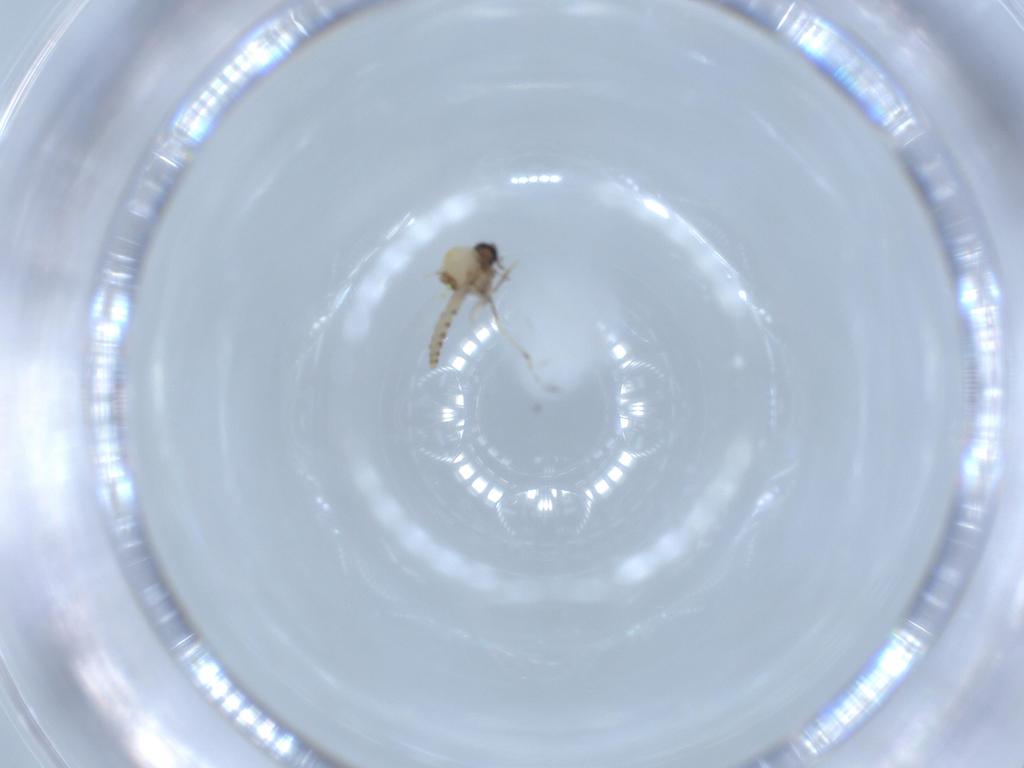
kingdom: Animalia
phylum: Arthropoda
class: Insecta
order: Diptera
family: Ceratopogonidae
